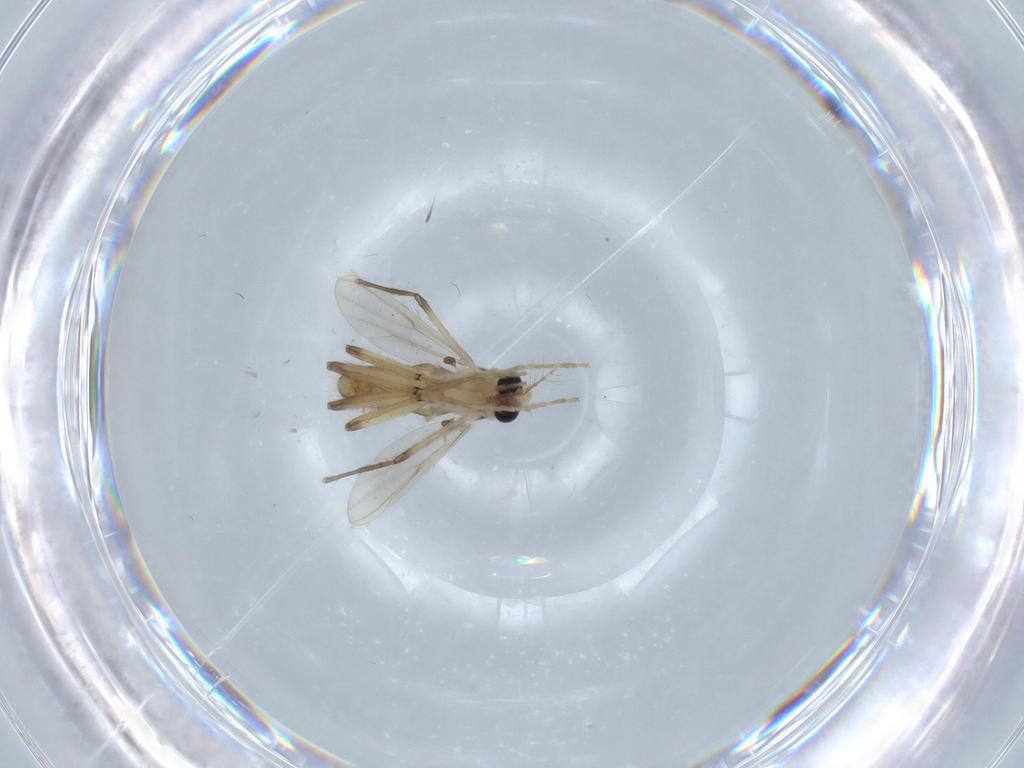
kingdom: Animalia
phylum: Arthropoda
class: Insecta
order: Diptera
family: Chironomidae
